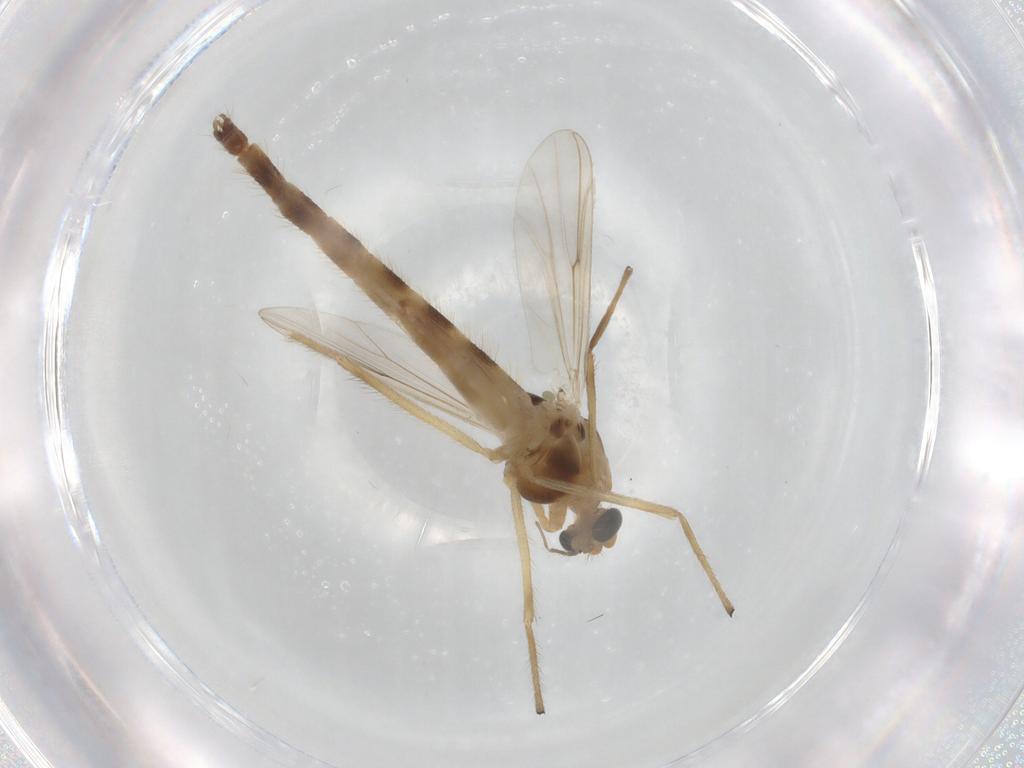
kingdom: Animalia
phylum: Arthropoda
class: Insecta
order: Diptera
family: Chironomidae
